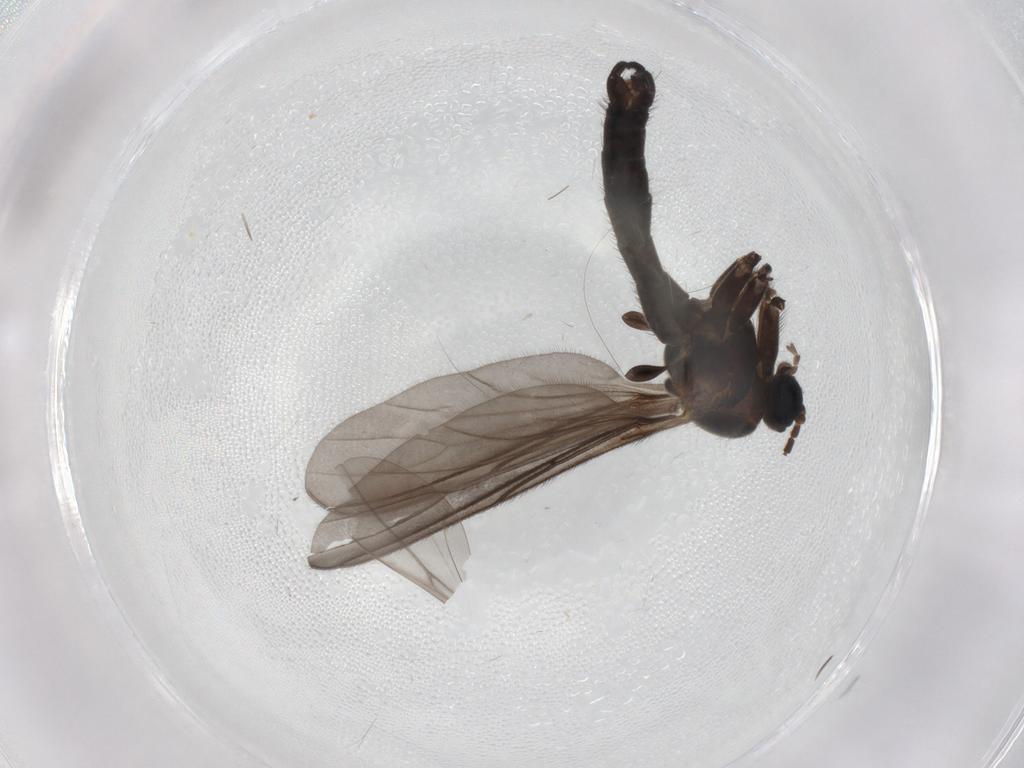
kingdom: Animalia
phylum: Arthropoda
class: Insecta
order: Diptera
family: Sciaridae
